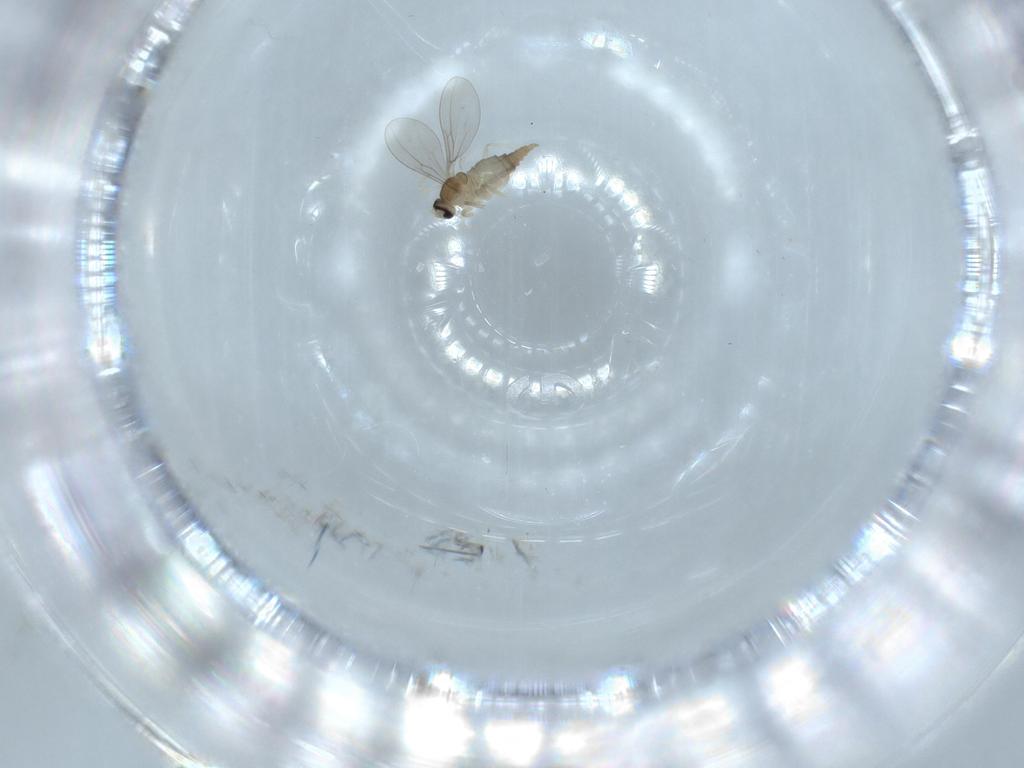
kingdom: Animalia
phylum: Arthropoda
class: Insecta
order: Diptera
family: Cecidomyiidae
